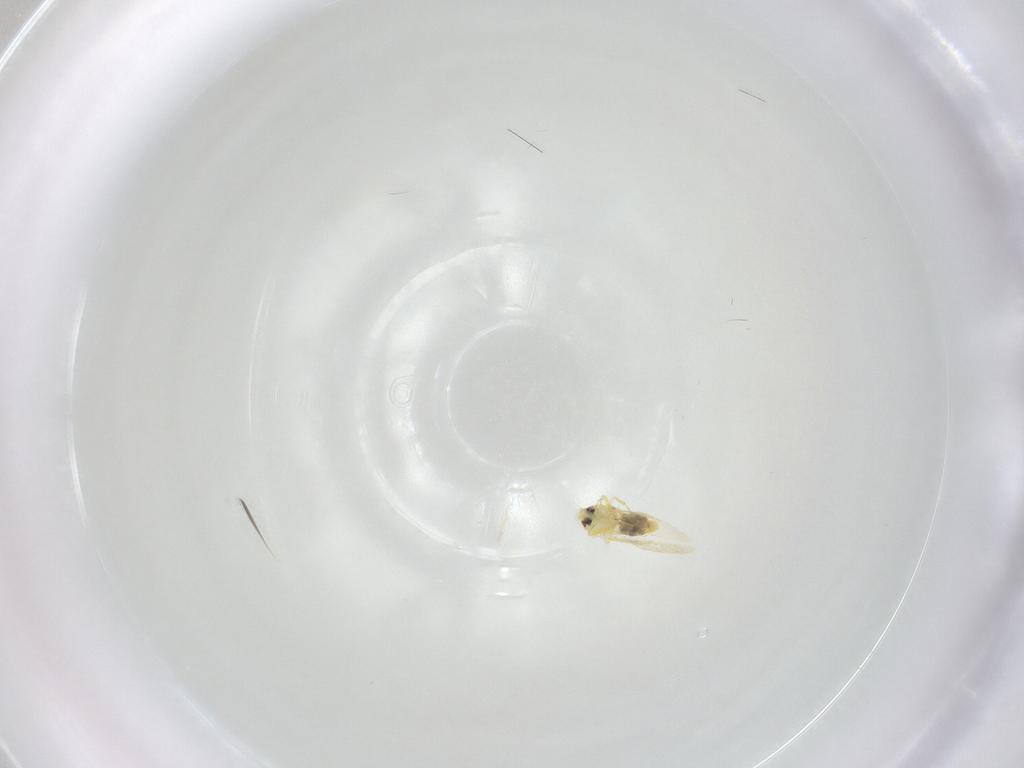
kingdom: Animalia
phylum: Arthropoda
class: Insecta
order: Hemiptera
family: Aleyrodidae
